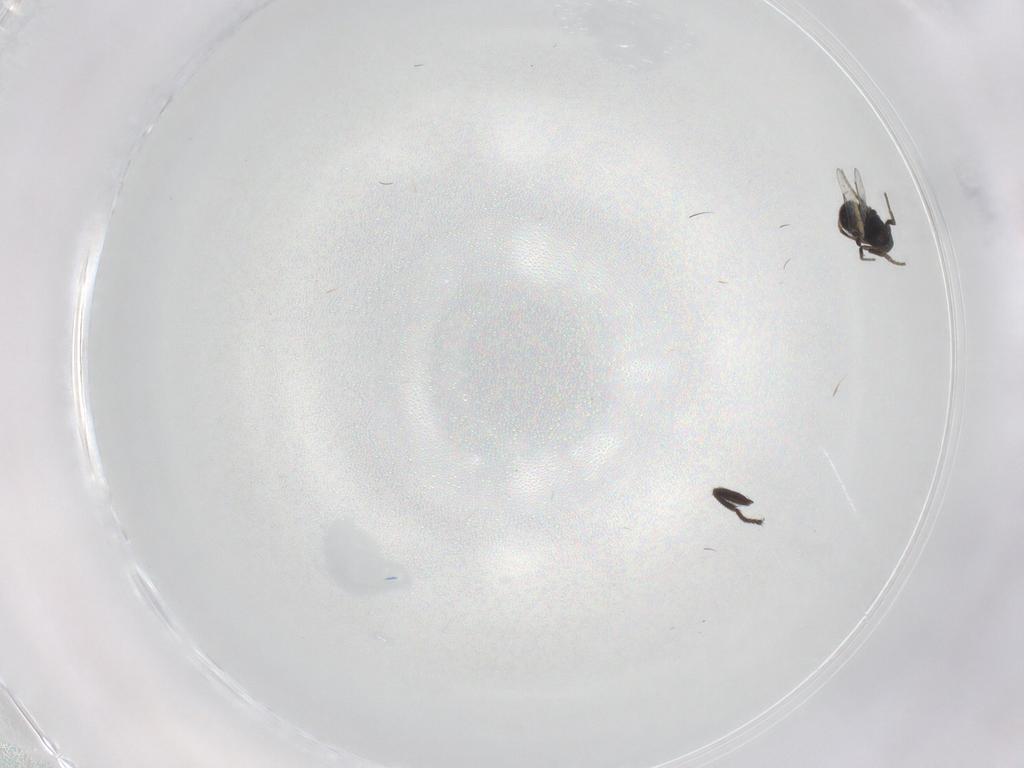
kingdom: Animalia
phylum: Arthropoda
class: Insecta
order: Diptera
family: Phoridae
